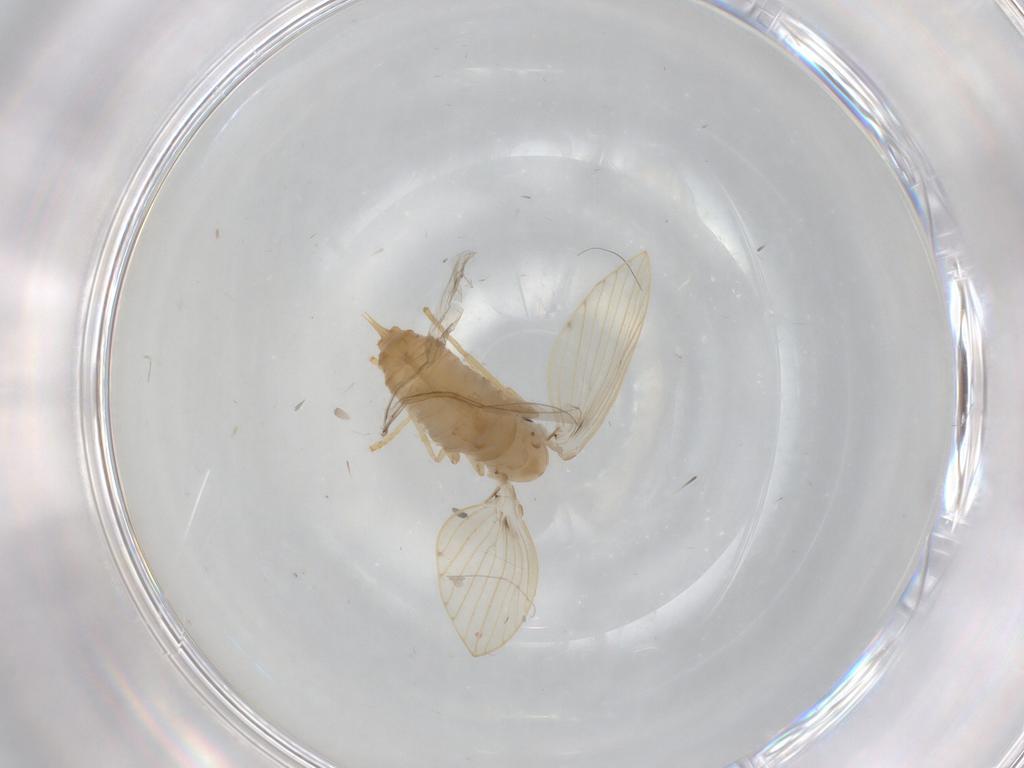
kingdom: Animalia
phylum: Arthropoda
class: Insecta
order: Diptera
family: Psychodidae
